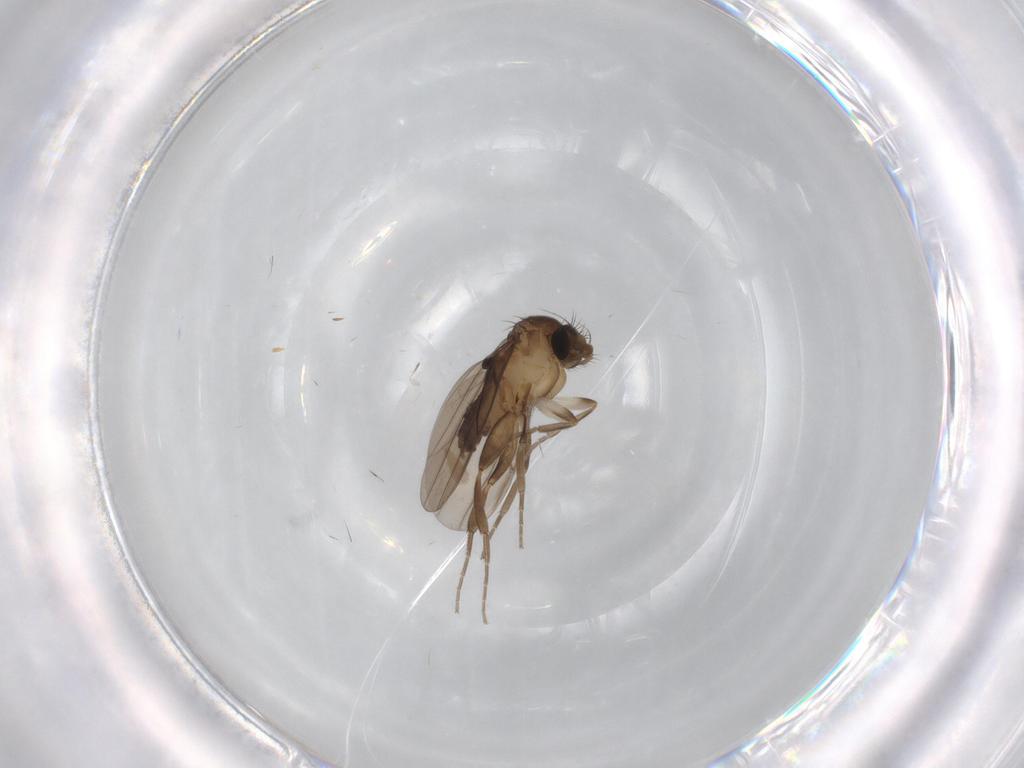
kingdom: Animalia
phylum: Arthropoda
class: Insecta
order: Diptera
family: Limoniidae
